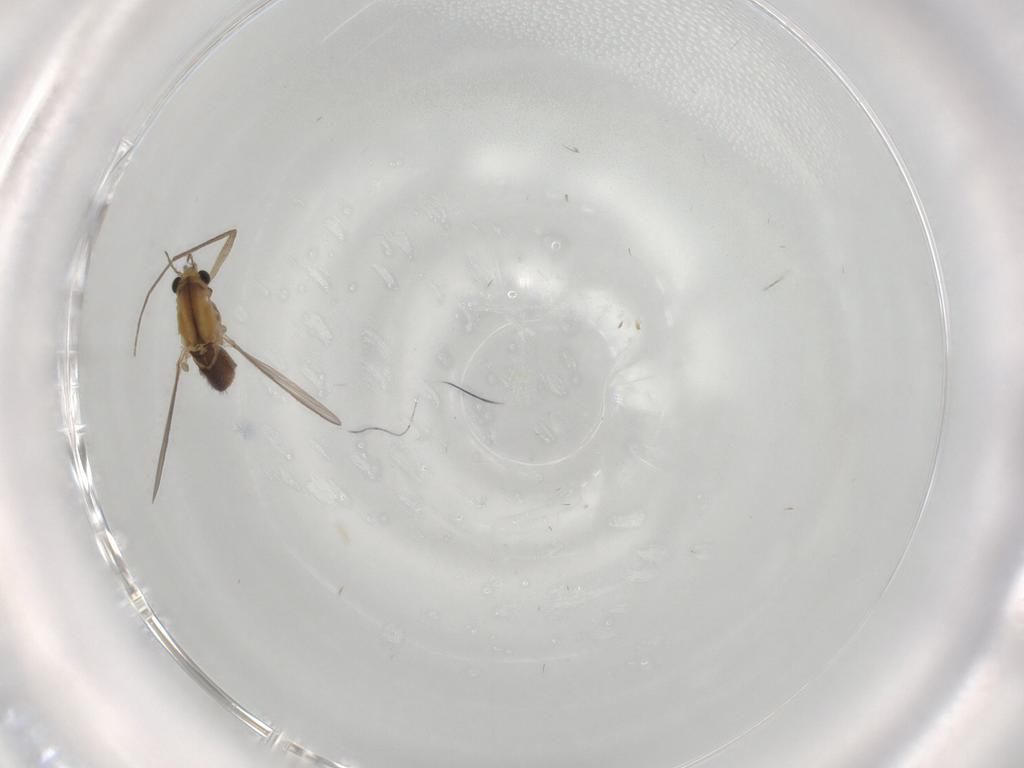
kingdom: Animalia
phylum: Arthropoda
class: Insecta
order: Diptera
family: Chironomidae
